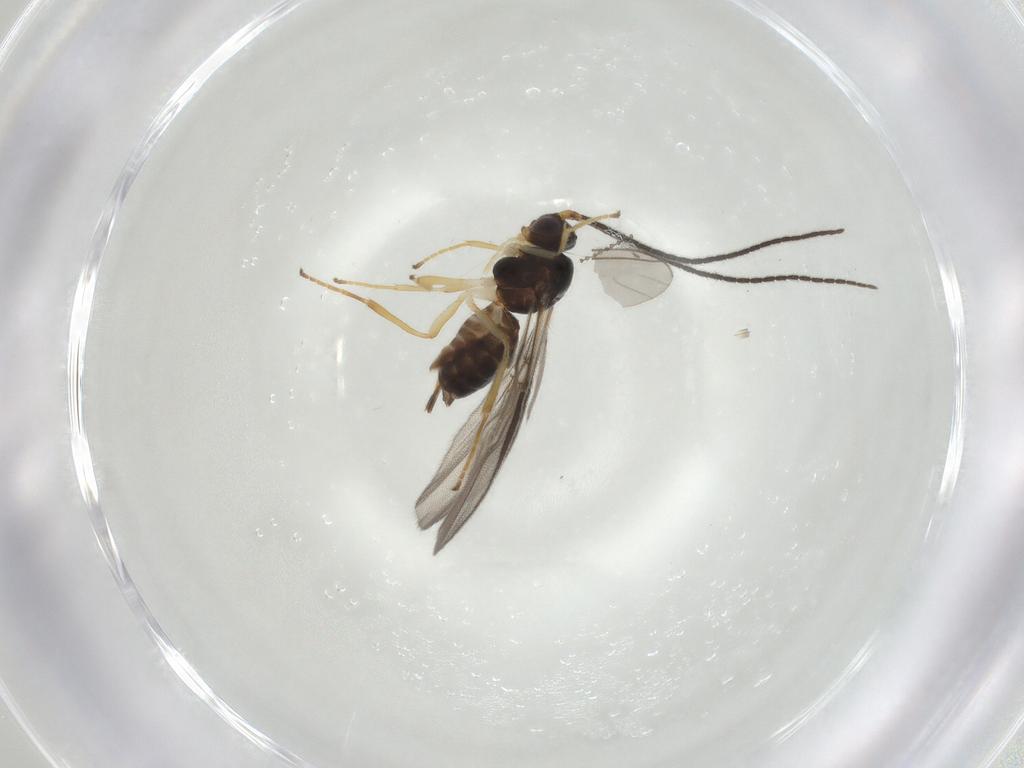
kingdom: Animalia
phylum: Arthropoda
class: Insecta
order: Hymenoptera
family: Braconidae
